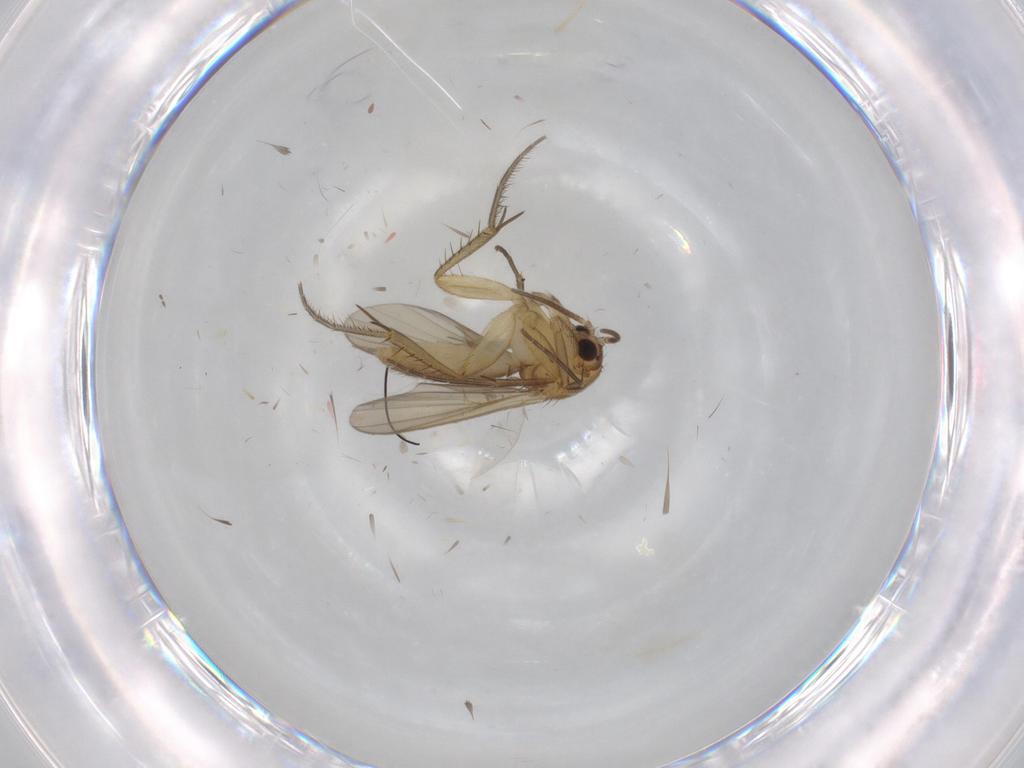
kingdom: Animalia
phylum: Arthropoda
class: Insecta
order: Diptera
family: Mycetophilidae
